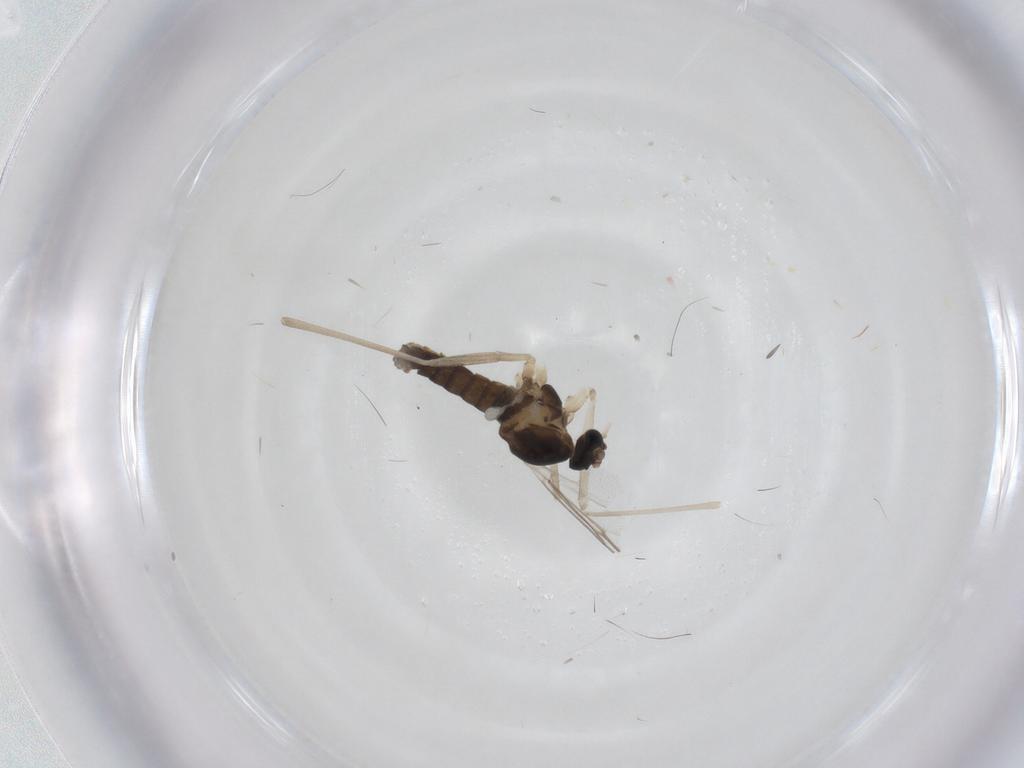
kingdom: Animalia
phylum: Arthropoda
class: Insecta
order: Diptera
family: Cecidomyiidae
